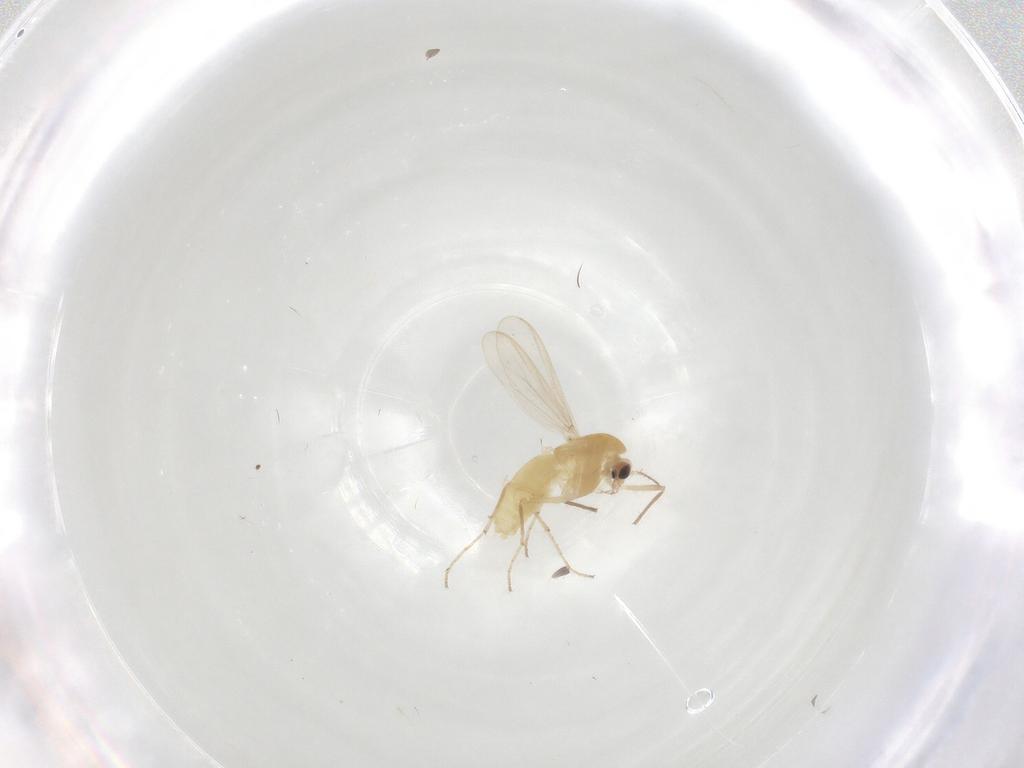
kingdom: Animalia
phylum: Arthropoda
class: Insecta
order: Diptera
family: Chironomidae
